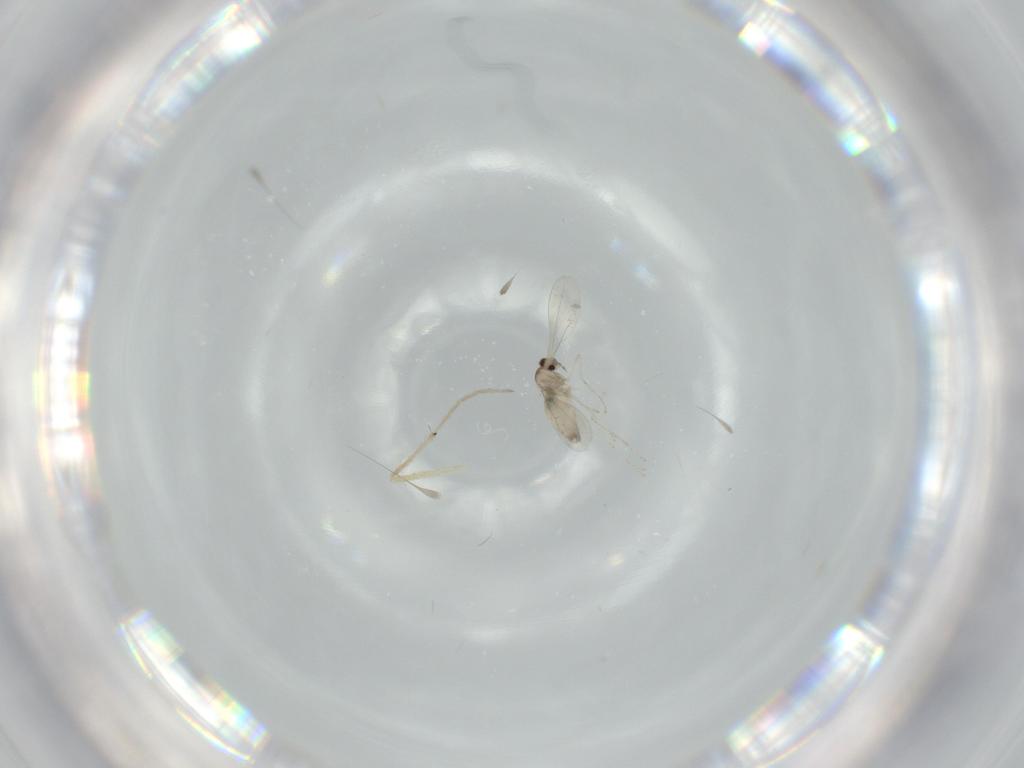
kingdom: Animalia
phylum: Arthropoda
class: Insecta
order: Diptera
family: Cecidomyiidae
